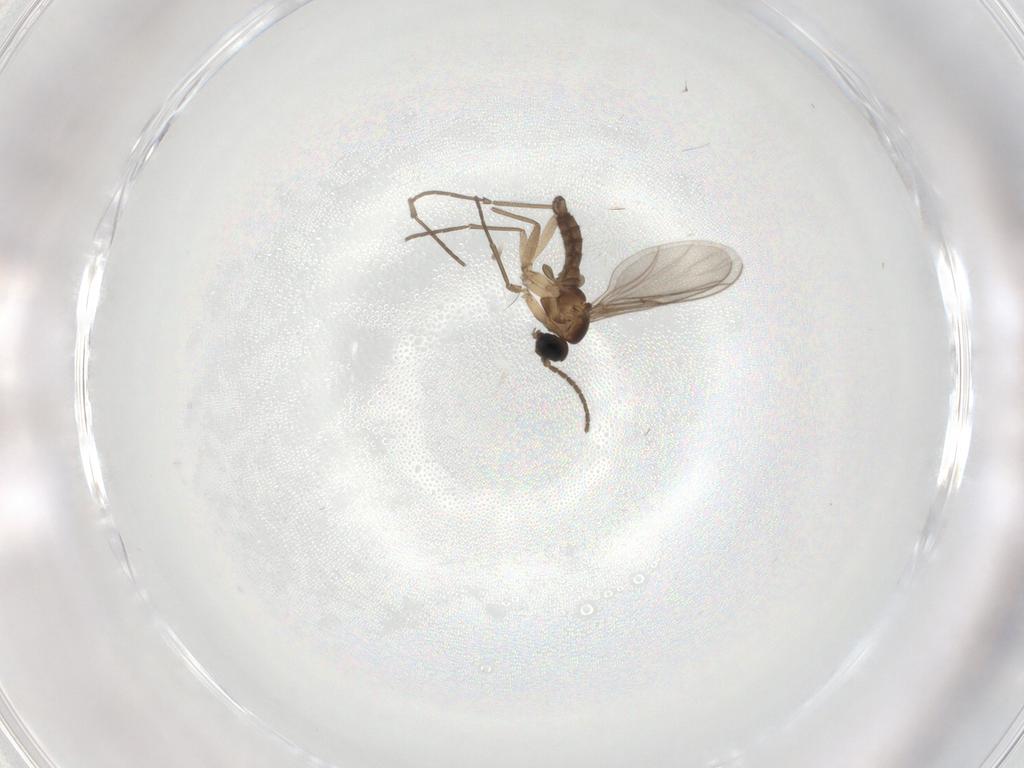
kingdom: Animalia
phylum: Arthropoda
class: Insecta
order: Diptera
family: Sciaridae
